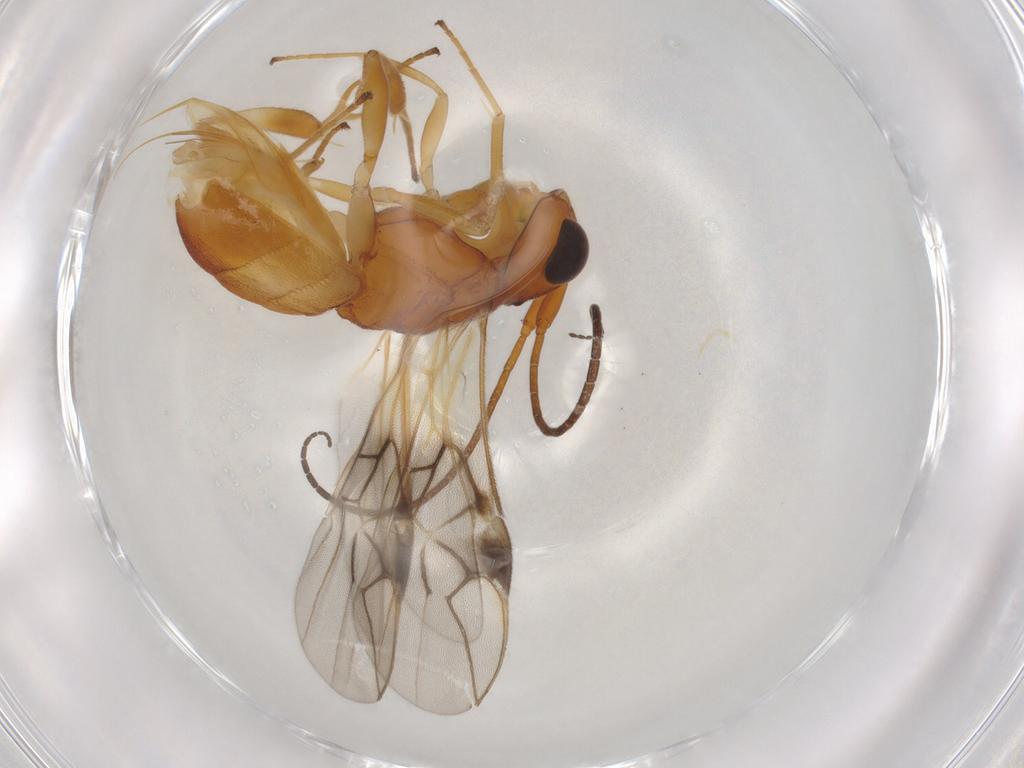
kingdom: Animalia
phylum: Arthropoda
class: Insecta
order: Hymenoptera
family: Braconidae
